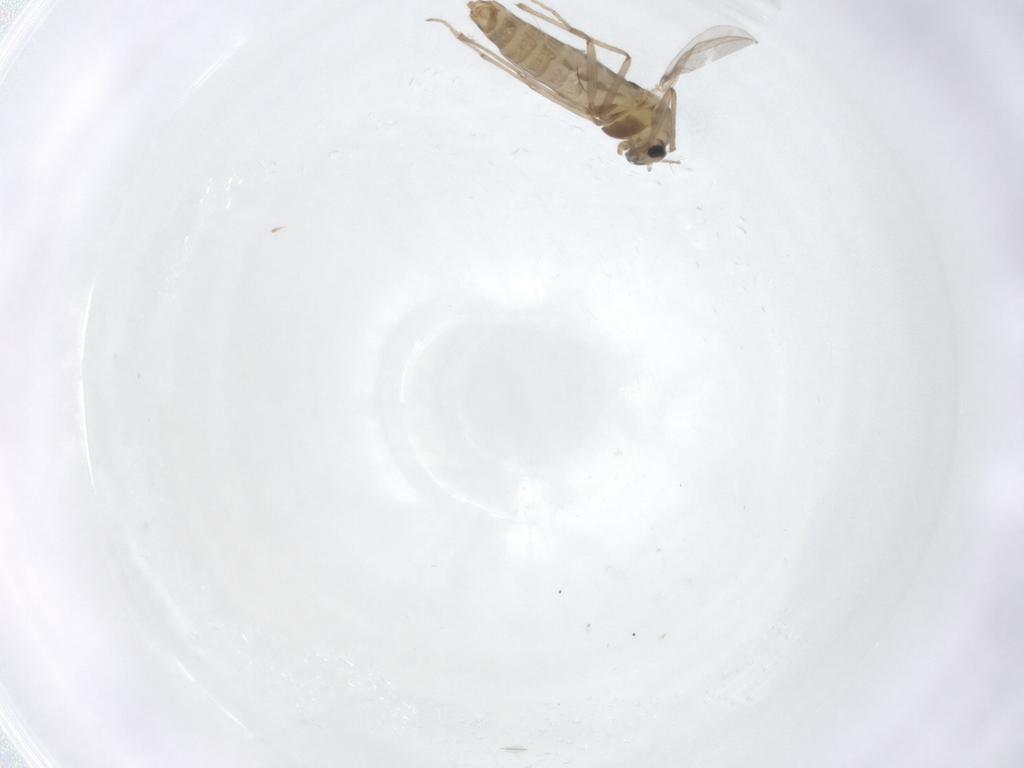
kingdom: Animalia
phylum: Arthropoda
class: Insecta
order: Diptera
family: Chironomidae
